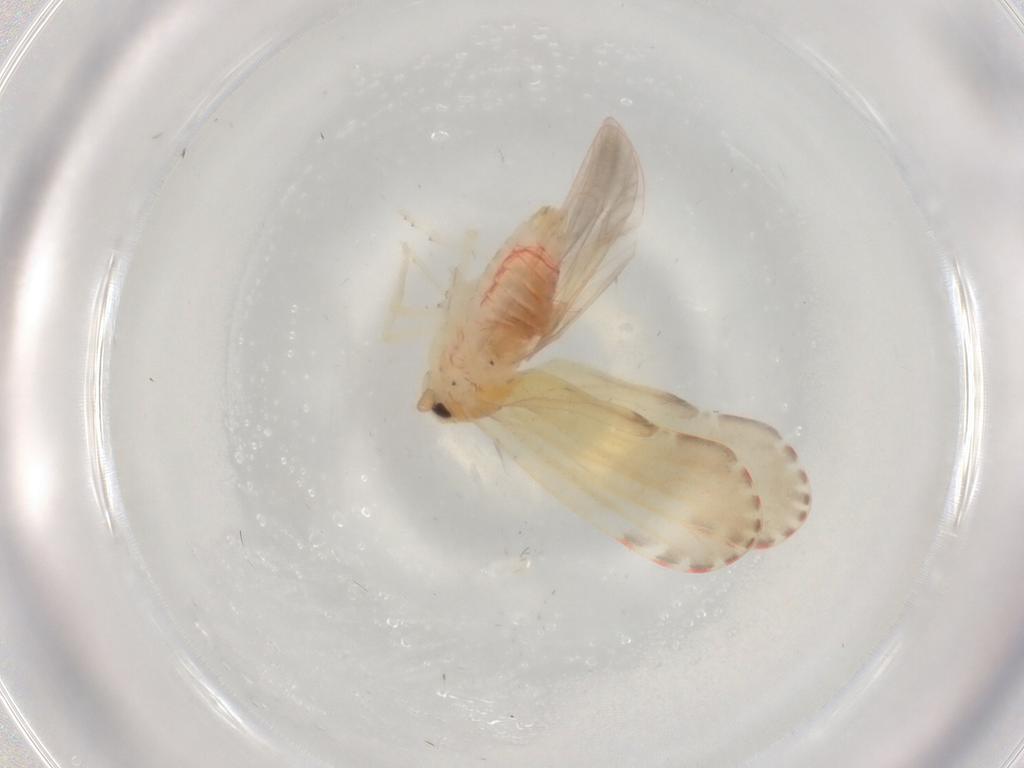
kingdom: Animalia
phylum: Arthropoda
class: Insecta
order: Hemiptera
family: Derbidae
